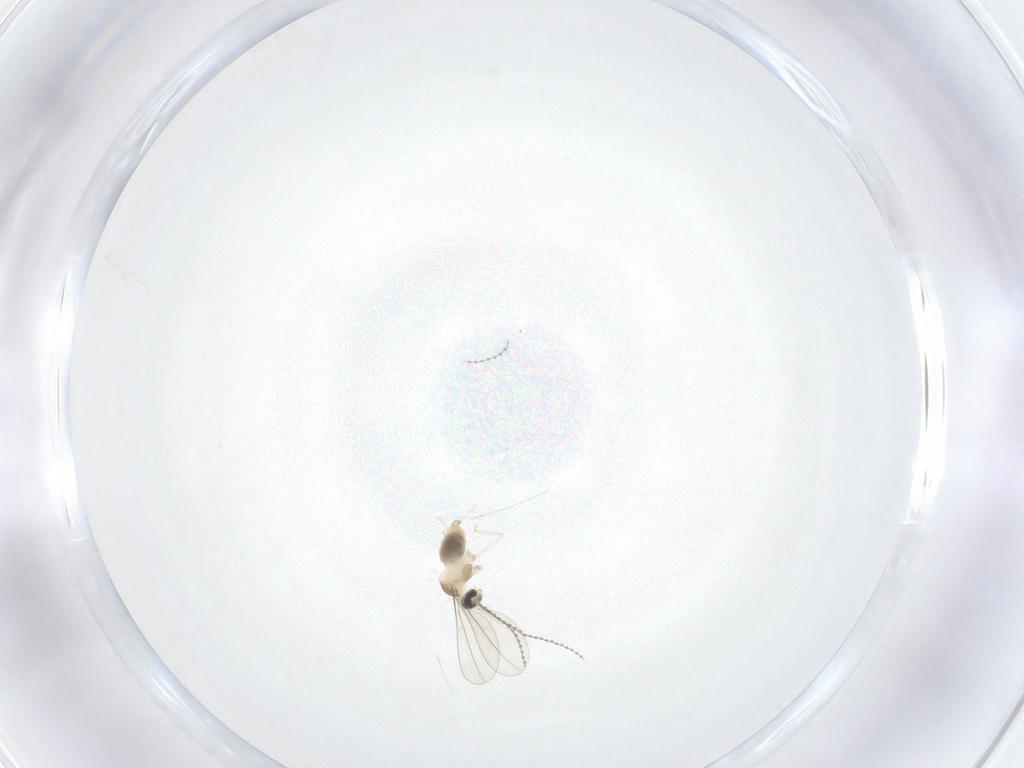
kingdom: Animalia
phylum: Arthropoda
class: Insecta
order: Diptera
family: Cecidomyiidae
